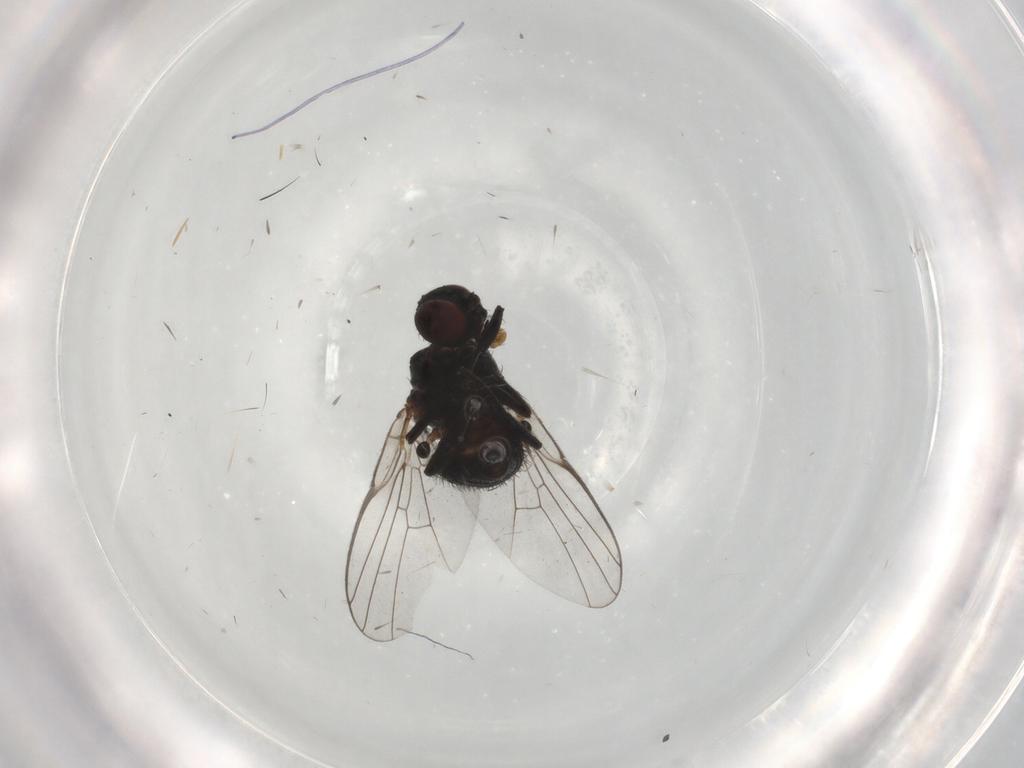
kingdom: Animalia
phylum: Arthropoda
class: Insecta
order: Diptera
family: Agromyzidae
